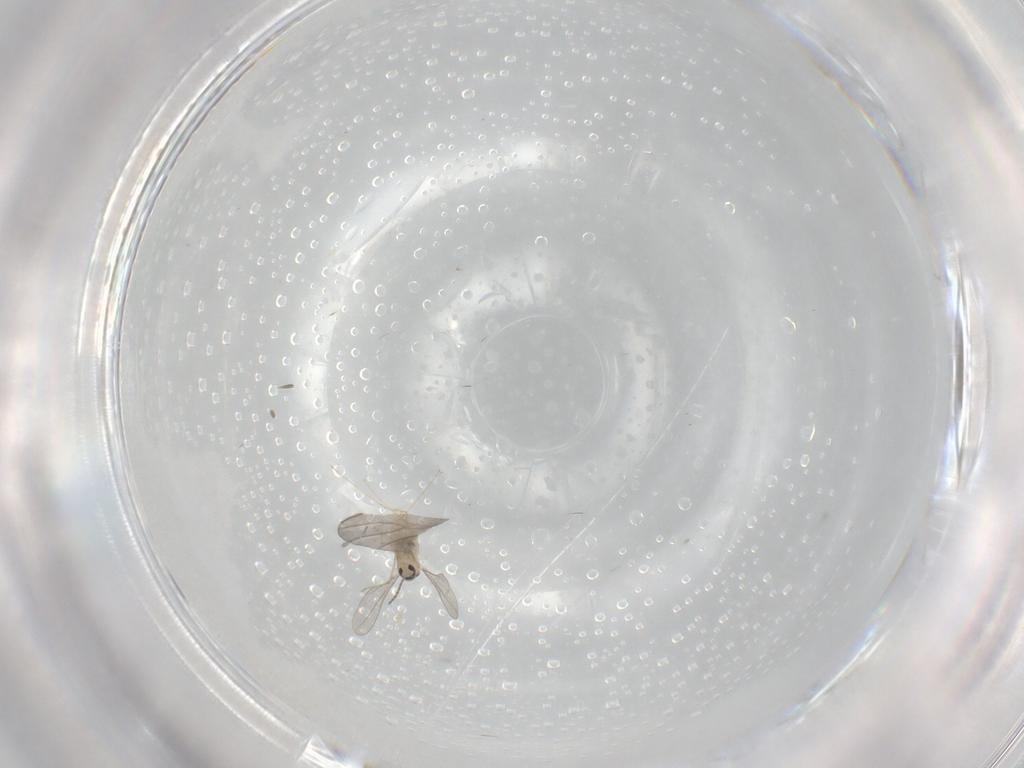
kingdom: Animalia
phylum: Arthropoda
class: Insecta
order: Diptera
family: Cecidomyiidae
